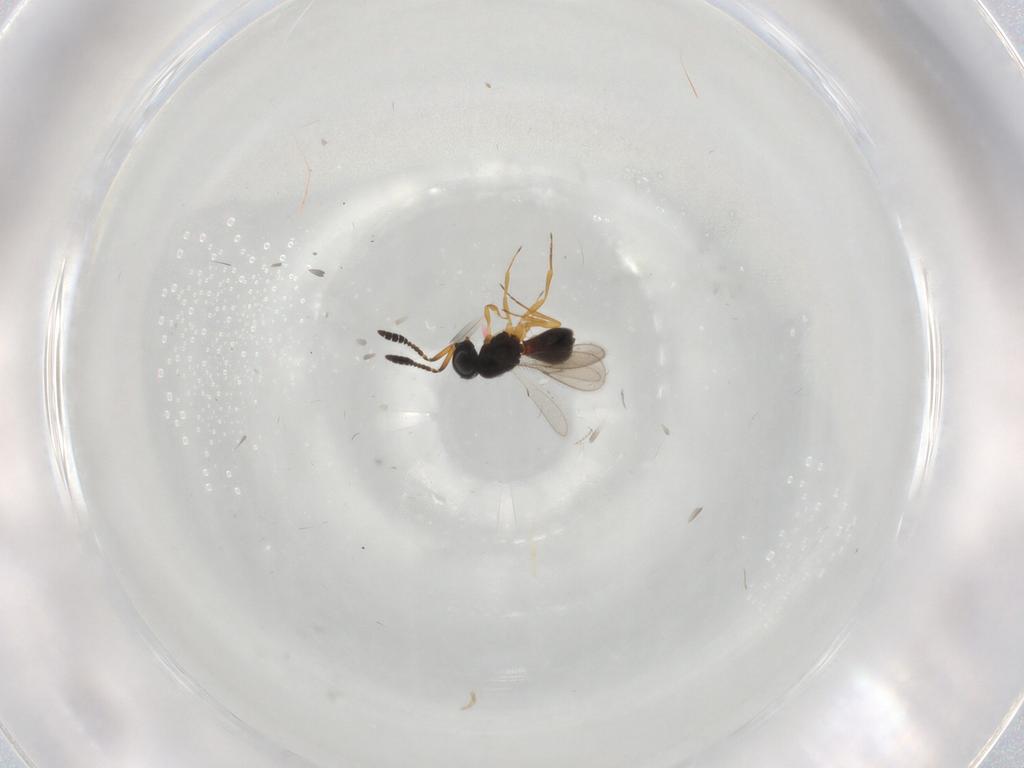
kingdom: Animalia
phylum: Arthropoda
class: Insecta
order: Hymenoptera
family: Scelionidae
